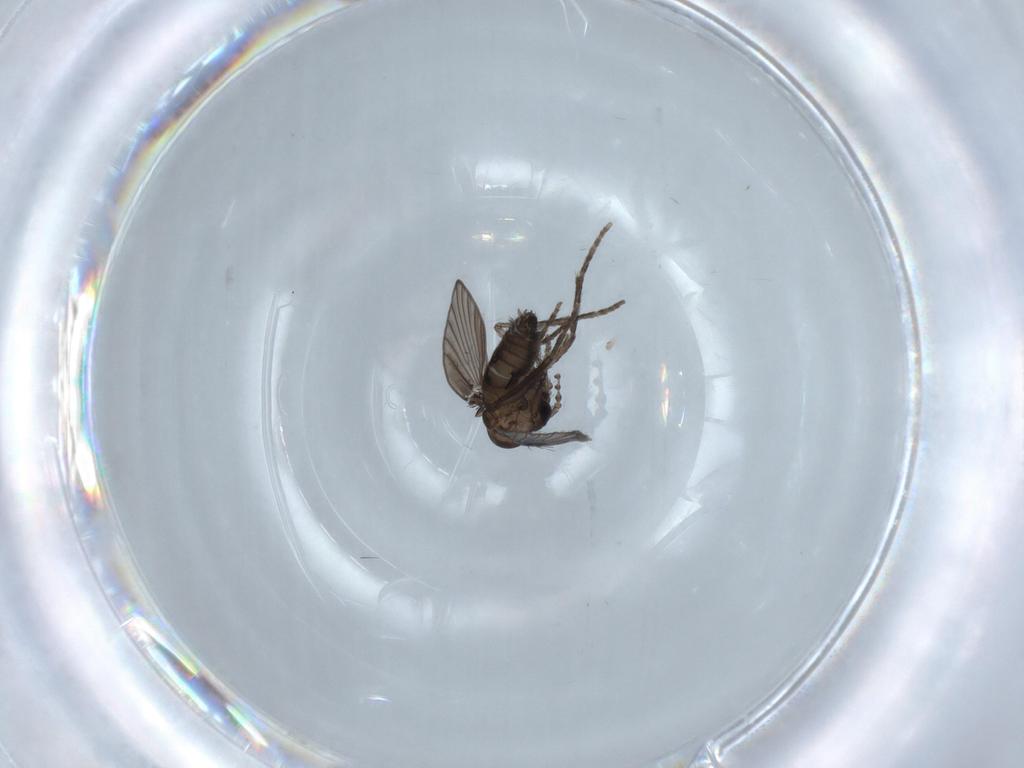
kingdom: Animalia
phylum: Arthropoda
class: Insecta
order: Diptera
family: Psychodidae
